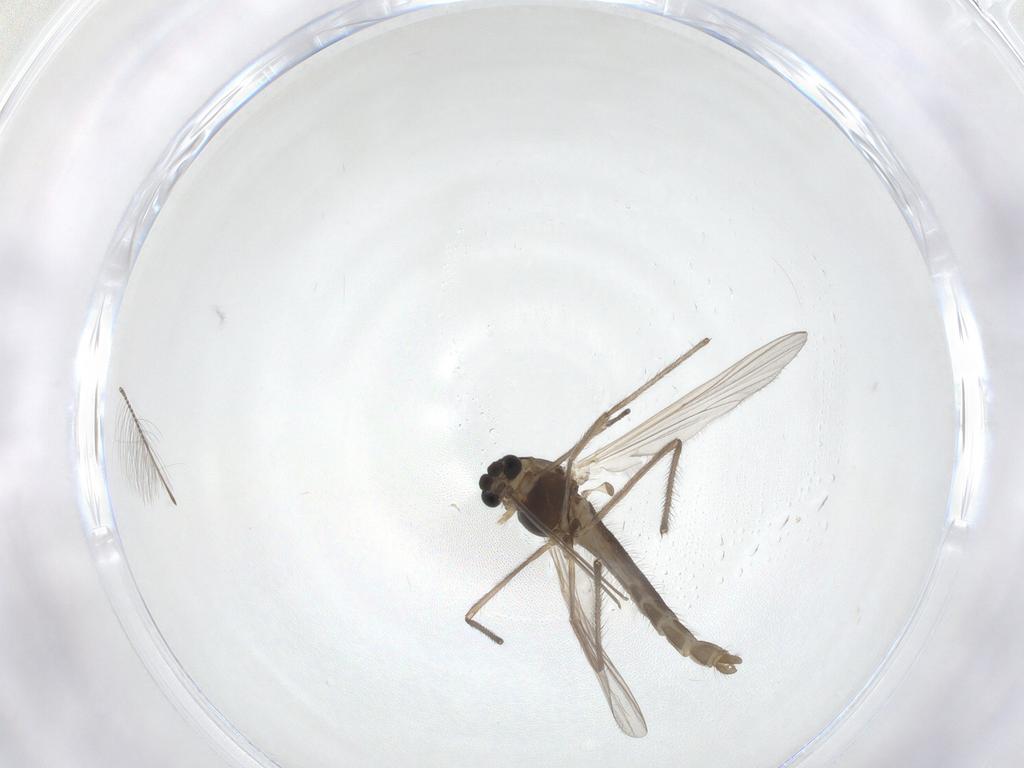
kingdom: Animalia
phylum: Arthropoda
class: Insecta
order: Diptera
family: Chironomidae
